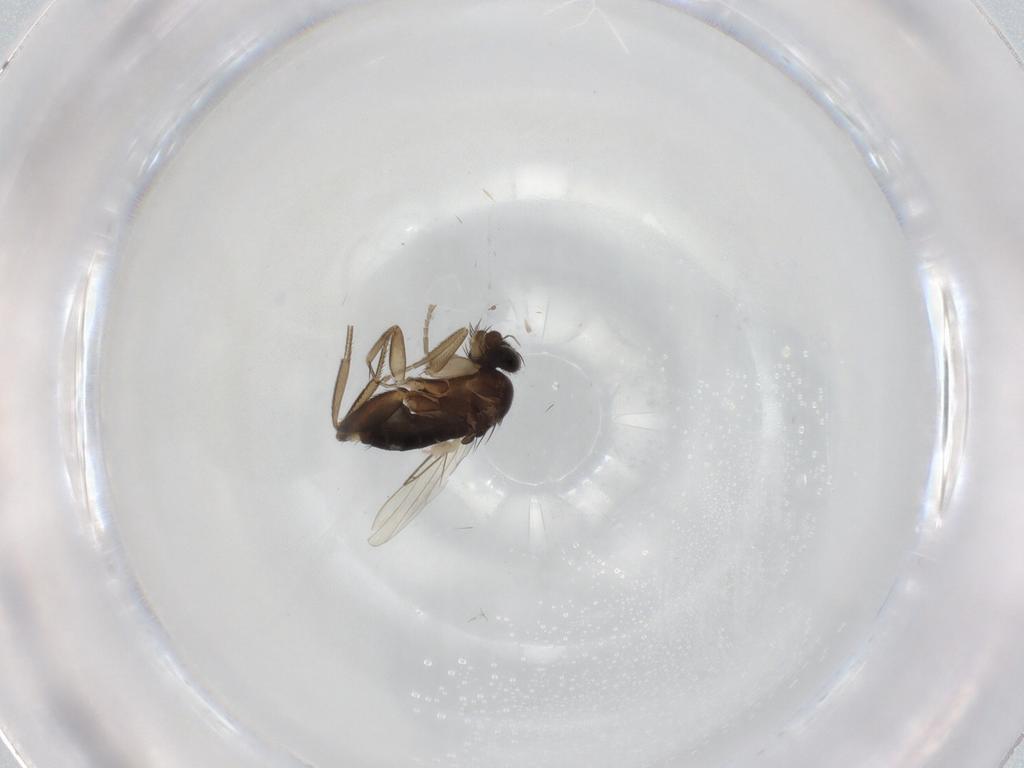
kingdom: Animalia
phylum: Arthropoda
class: Insecta
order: Diptera
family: Phoridae
